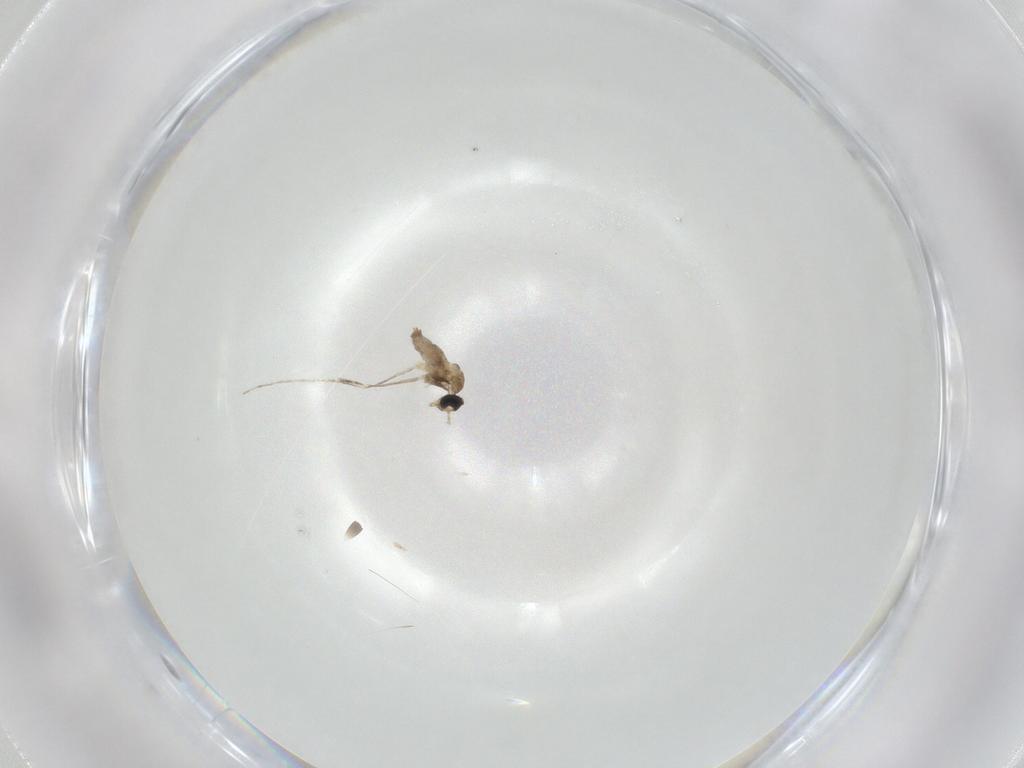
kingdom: Animalia
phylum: Arthropoda
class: Insecta
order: Diptera
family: Cecidomyiidae
